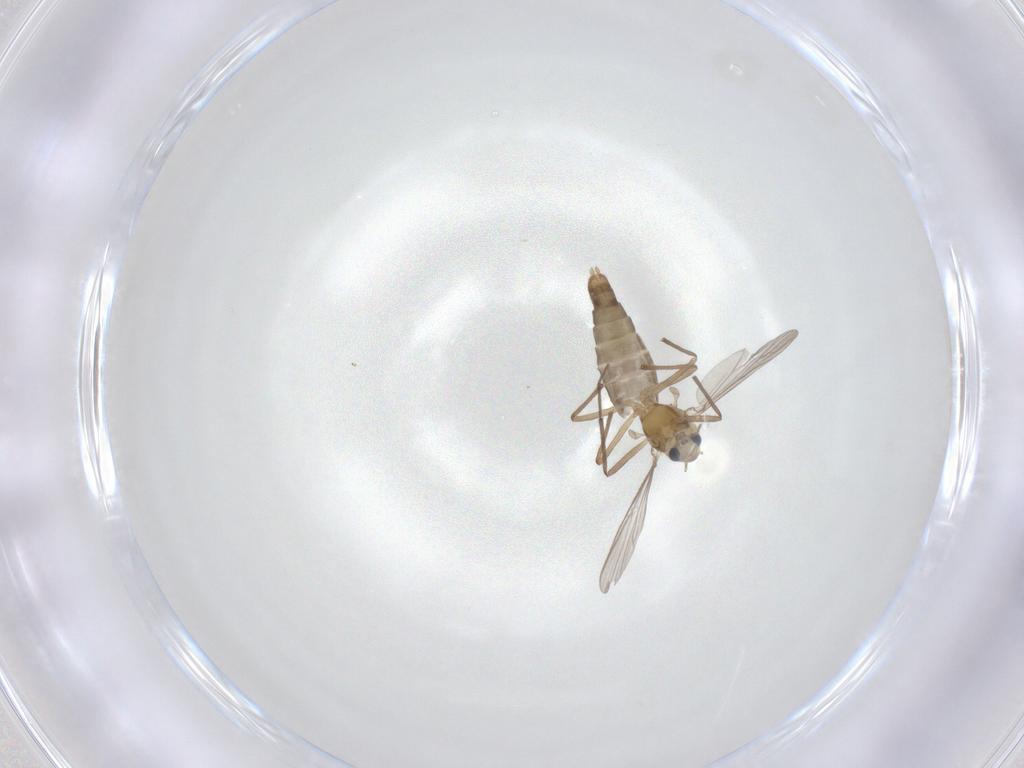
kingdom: Animalia
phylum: Arthropoda
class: Insecta
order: Diptera
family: Chironomidae
